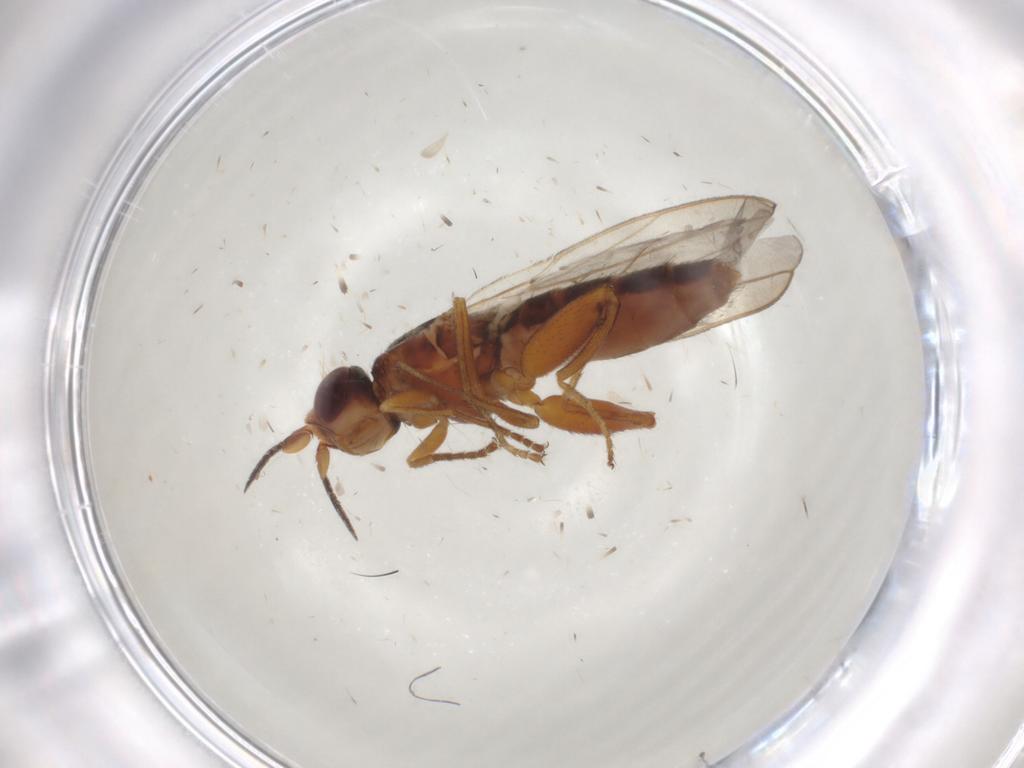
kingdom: Animalia
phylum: Arthropoda
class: Insecta
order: Diptera
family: Chloropidae
